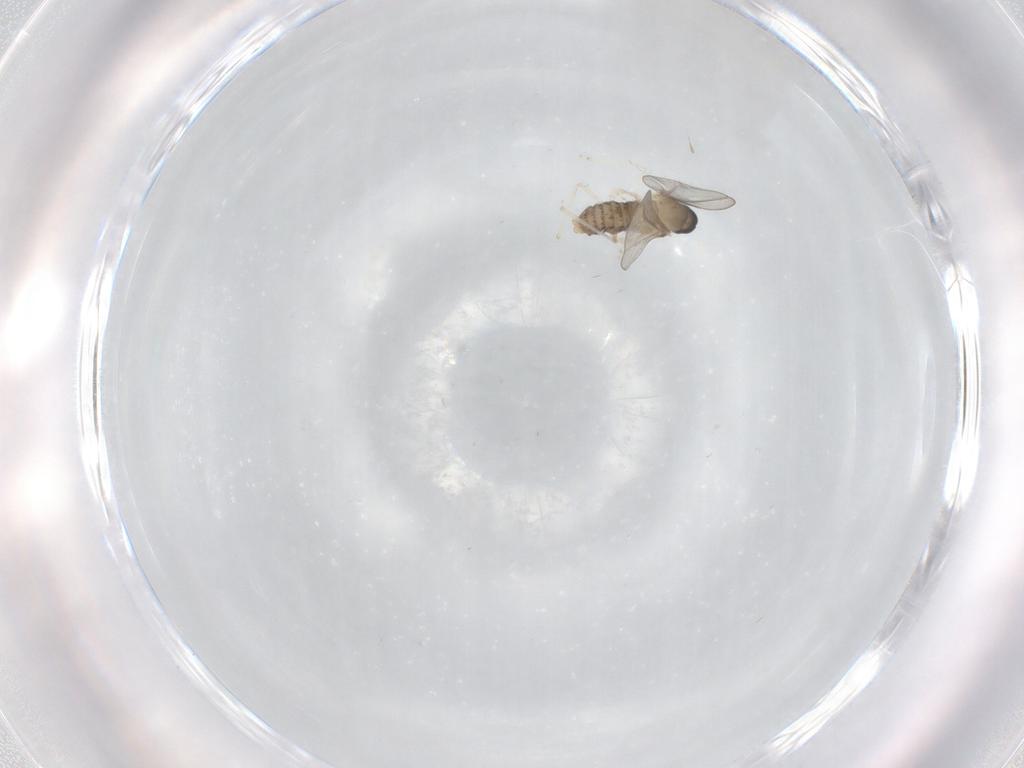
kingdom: Animalia
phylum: Arthropoda
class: Insecta
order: Diptera
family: Cecidomyiidae
